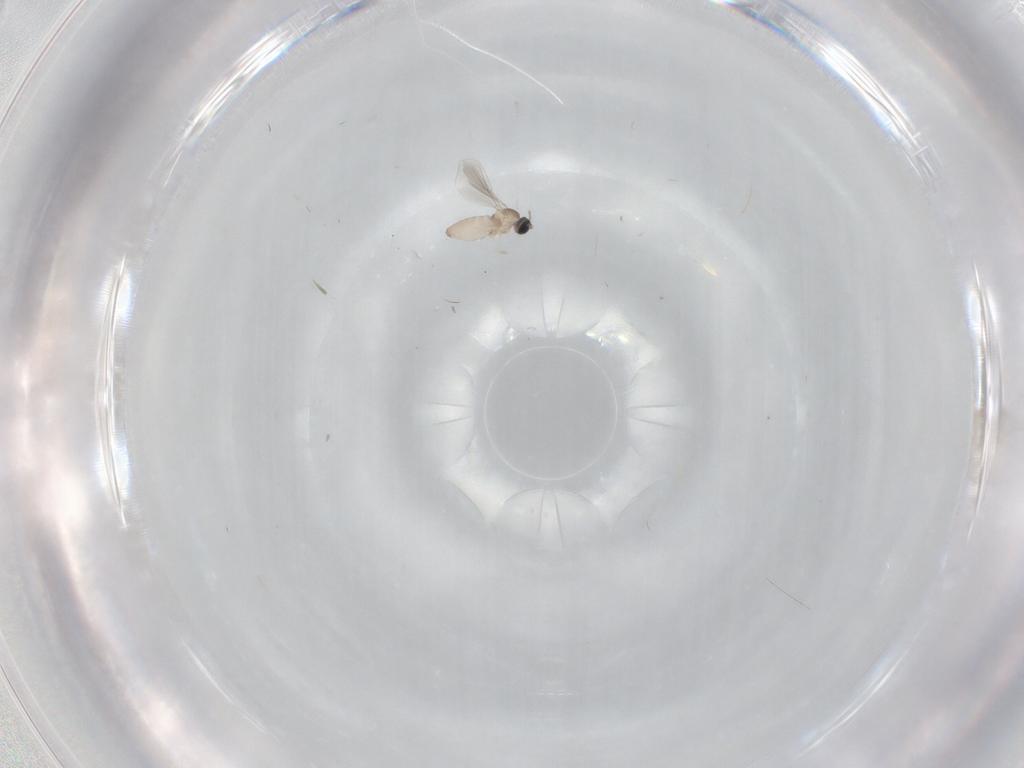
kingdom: Animalia
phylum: Arthropoda
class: Insecta
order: Diptera
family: Cecidomyiidae
